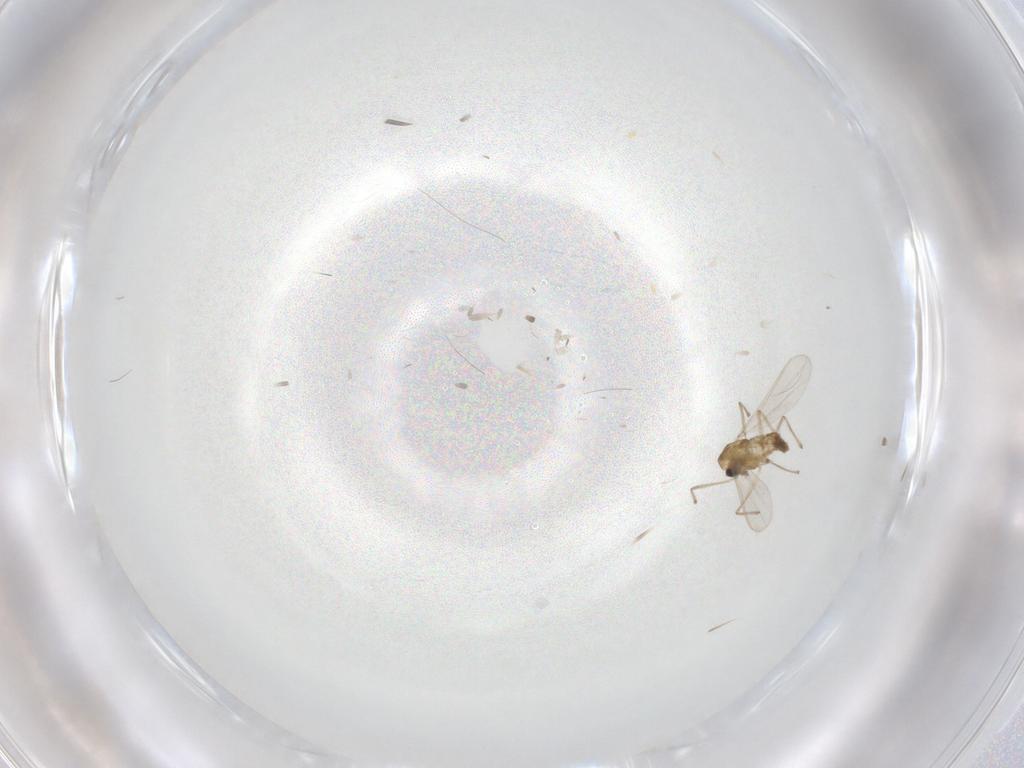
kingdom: Animalia
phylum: Arthropoda
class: Insecta
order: Diptera
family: Chironomidae
